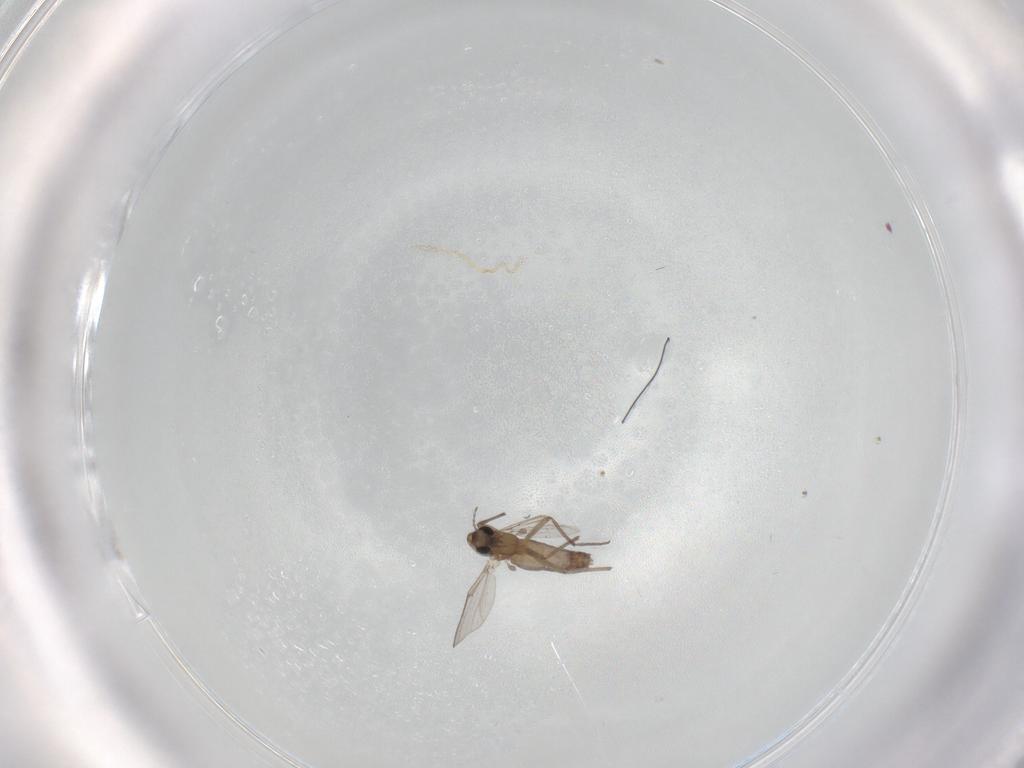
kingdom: Animalia
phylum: Arthropoda
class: Insecta
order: Diptera
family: Chironomidae
